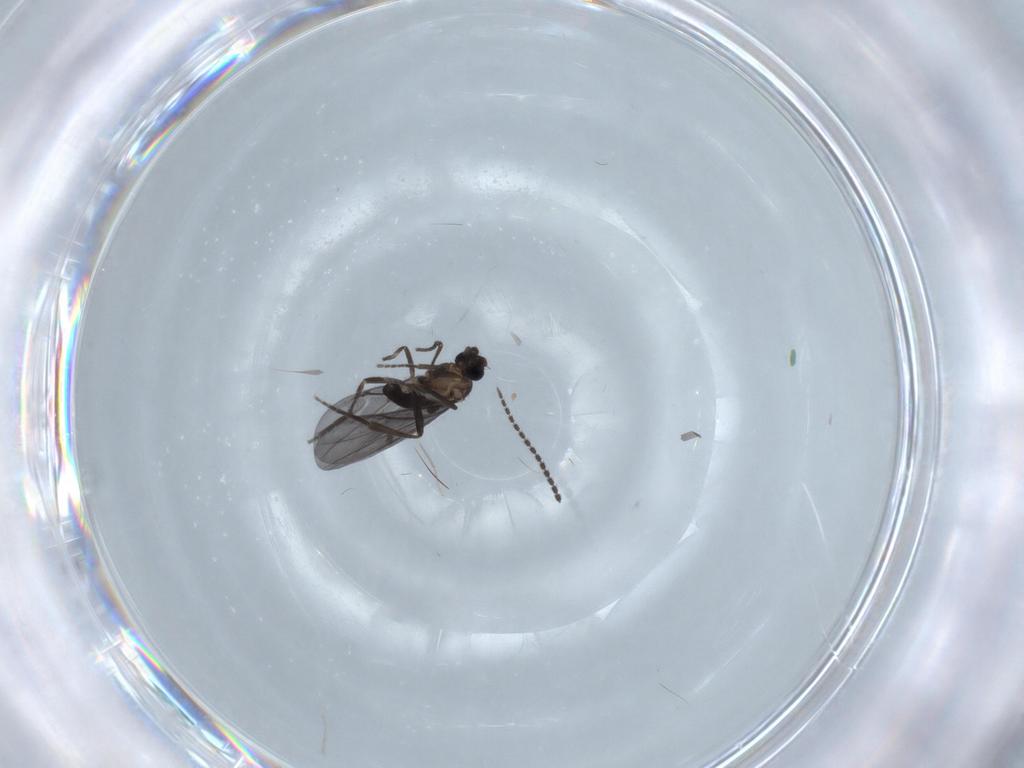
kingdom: Animalia
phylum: Arthropoda
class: Insecta
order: Diptera
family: Phoridae
